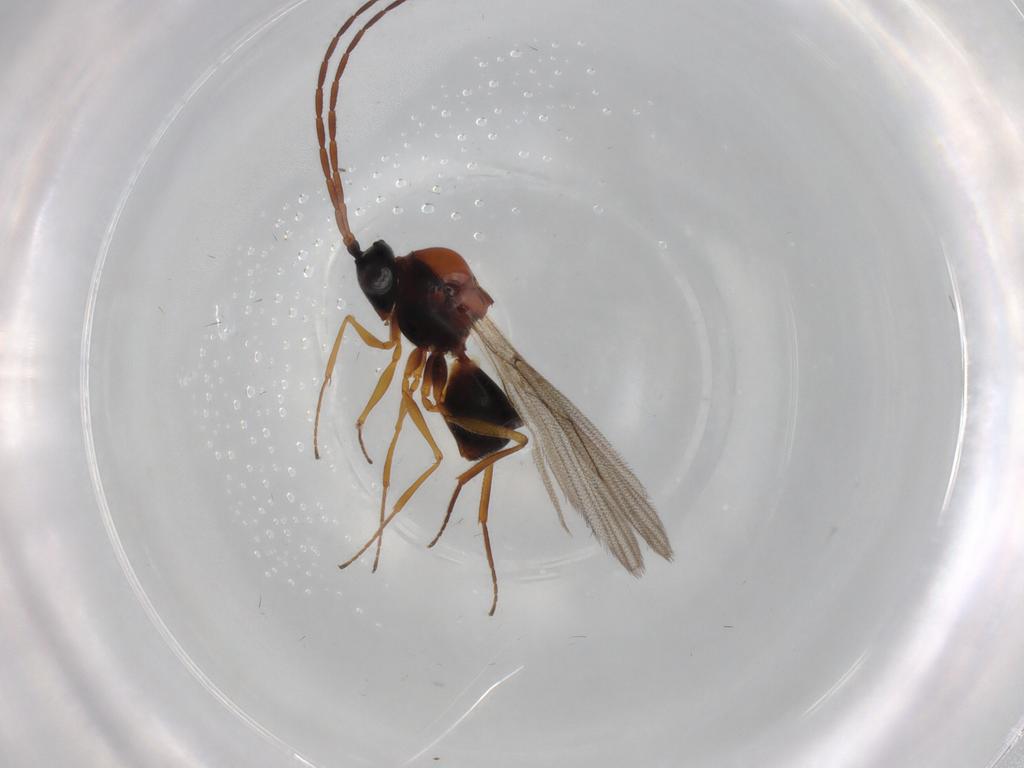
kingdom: Animalia
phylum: Arthropoda
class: Insecta
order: Hymenoptera
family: Figitidae
